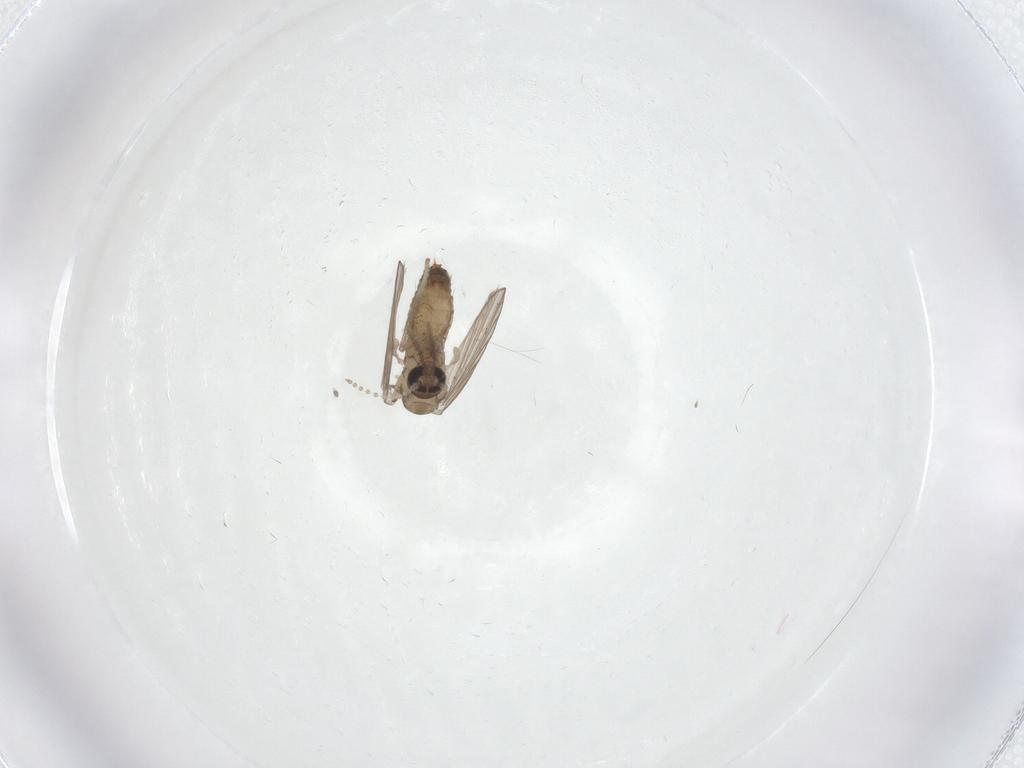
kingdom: Animalia
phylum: Arthropoda
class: Insecta
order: Diptera
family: Psychodidae
